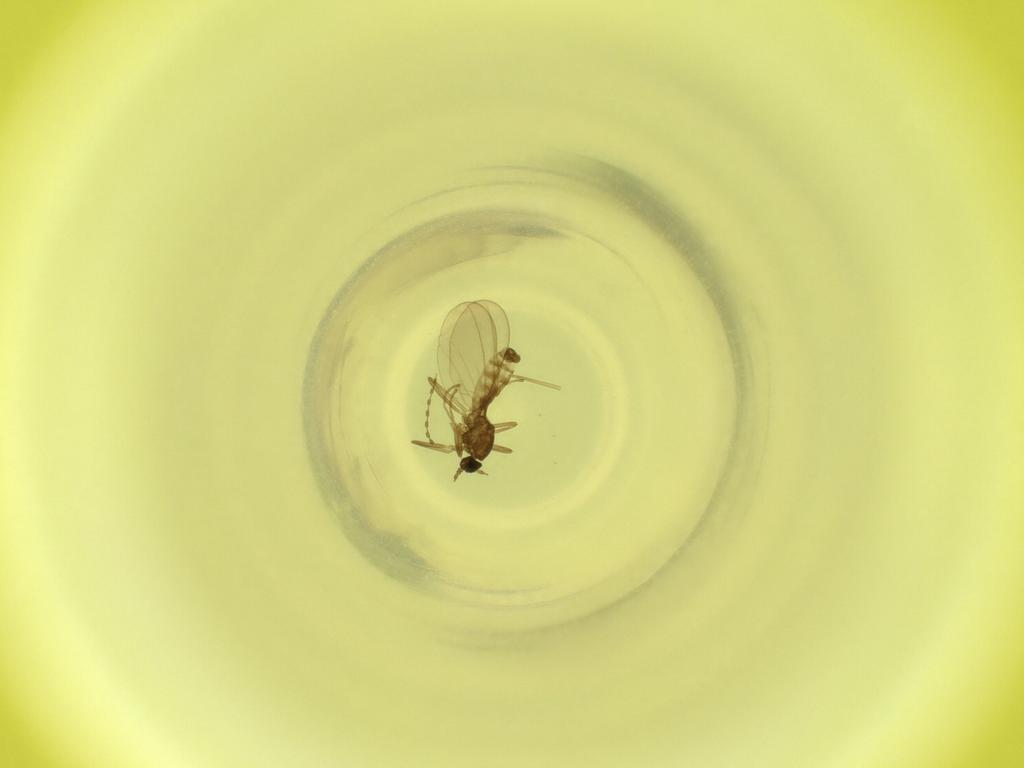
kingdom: Animalia
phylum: Arthropoda
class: Insecta
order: Diptera
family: Cecidomyiidae
